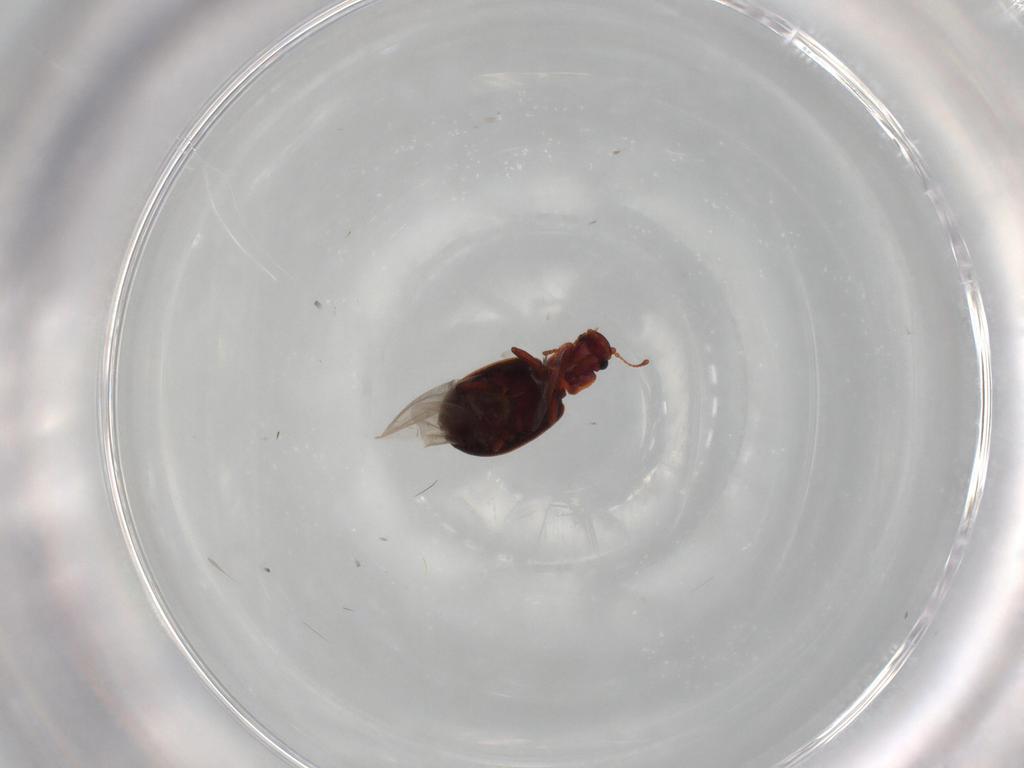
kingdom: Animalia
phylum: Arthropoda
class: Insecta
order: Coleoptera
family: Latridiidae
